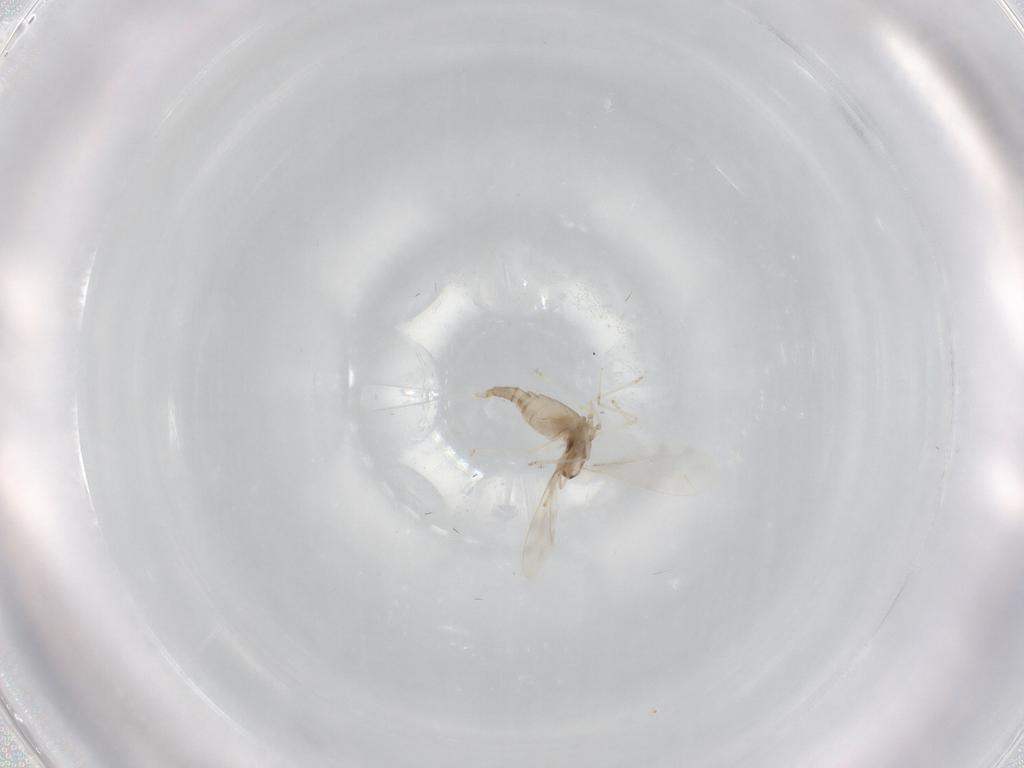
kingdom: Animalia
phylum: Arthropoda
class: Insecta
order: Diptera
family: Cecidomyiidae
